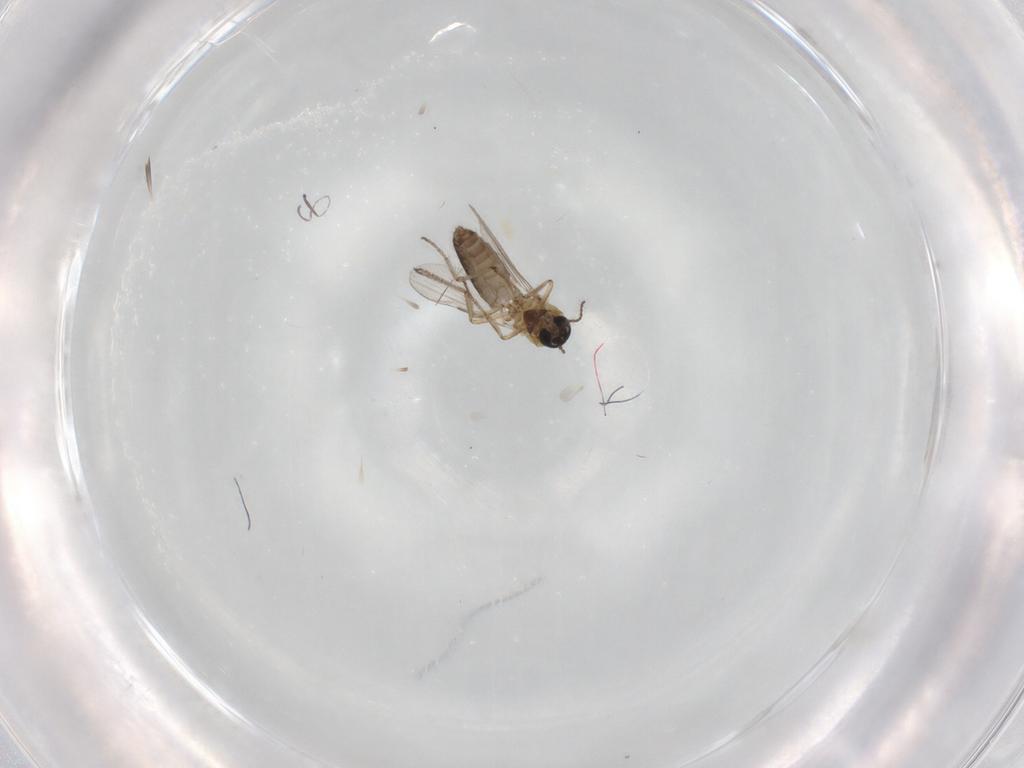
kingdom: Animalia
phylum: Arthropoda
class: Insecta
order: Diptera
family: Ceratopogonidae
